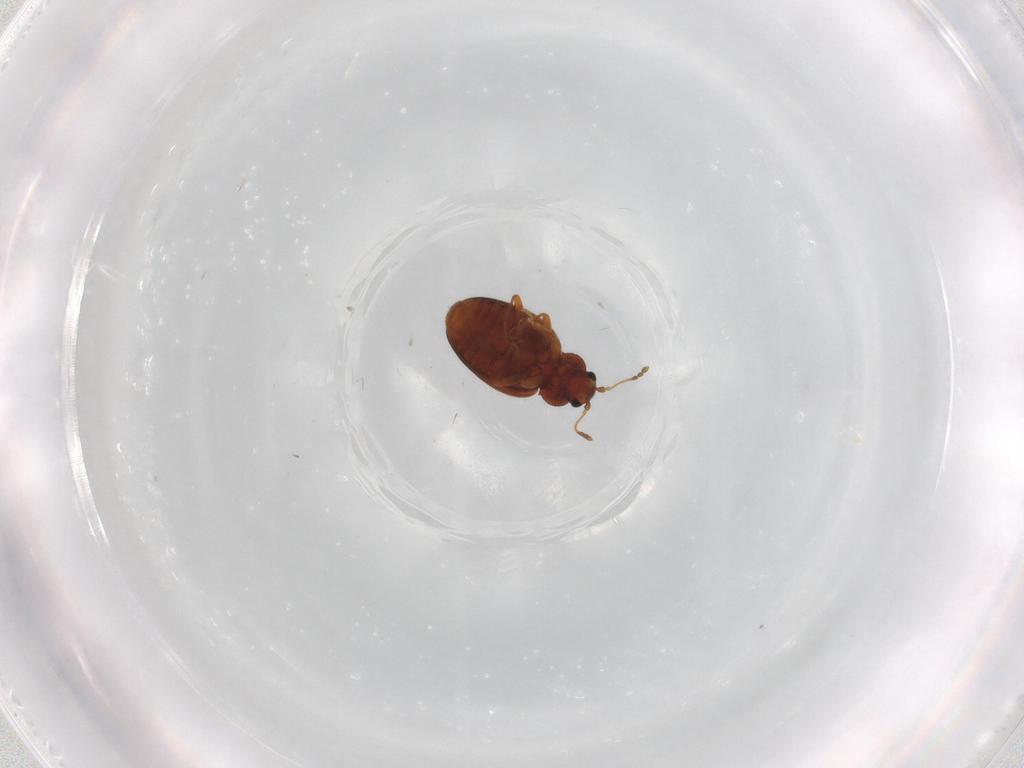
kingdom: Animalia
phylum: Arthropoda
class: Insecta
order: Coleoptera
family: Latridiidae
